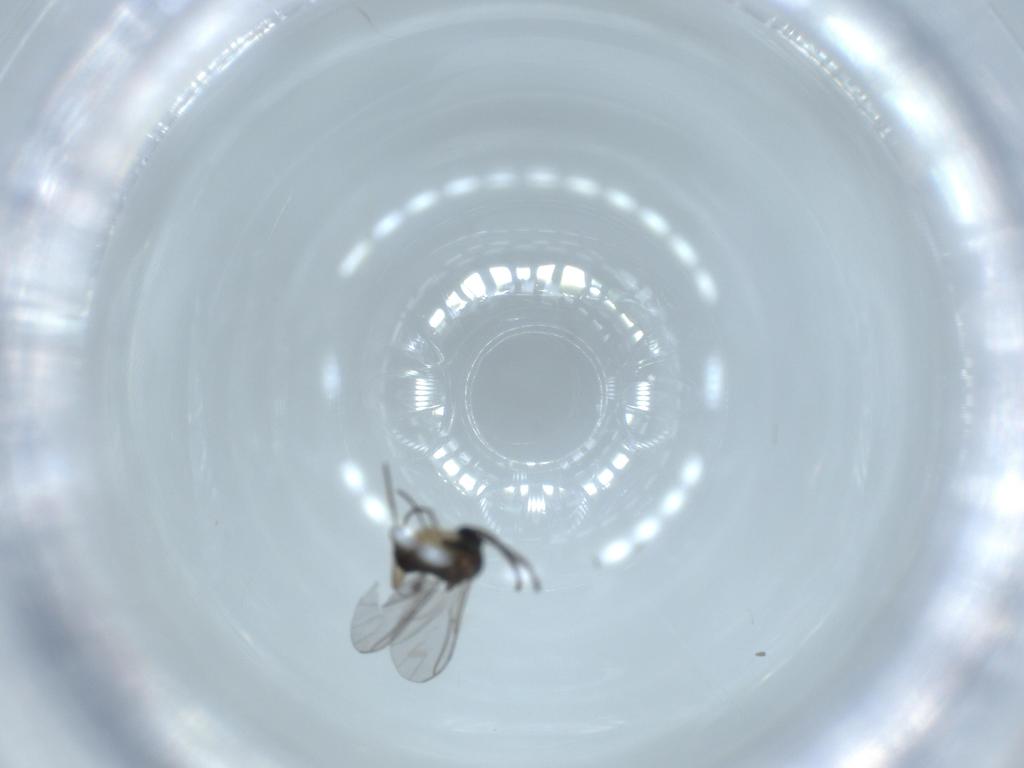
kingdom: Animalia
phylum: Arthropoda
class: Insecta
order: Diptera
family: Sciaridae
